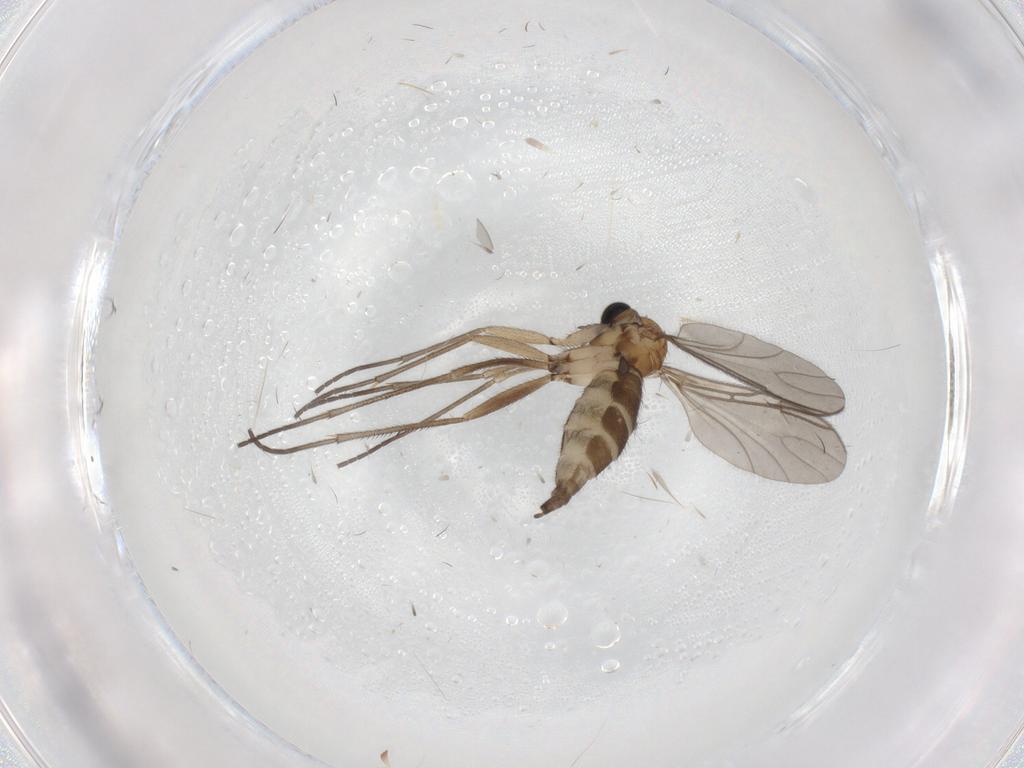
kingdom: Animalia
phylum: Arthropoda
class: Insecta
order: Diptera
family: Sciaridae
